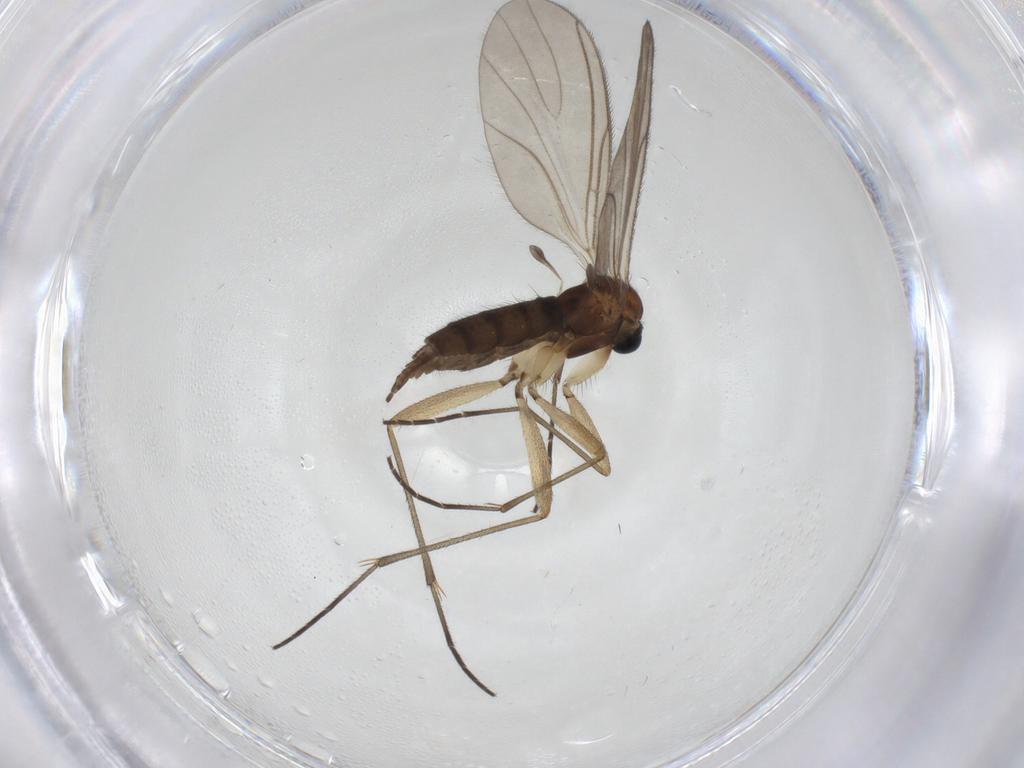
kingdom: Animalia
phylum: Arthropoda
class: Insecta
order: Diptera
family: Sciaridae
